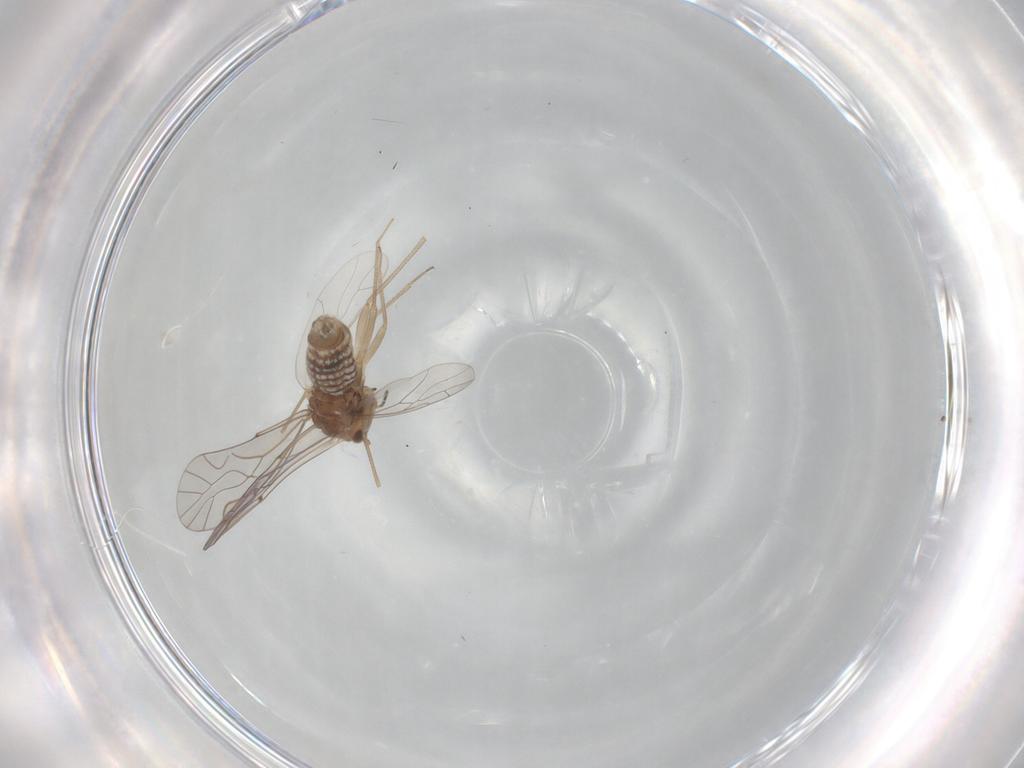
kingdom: Animalia
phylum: Arthropoda
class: Insecta
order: Psocodea
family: Lachesillidae
